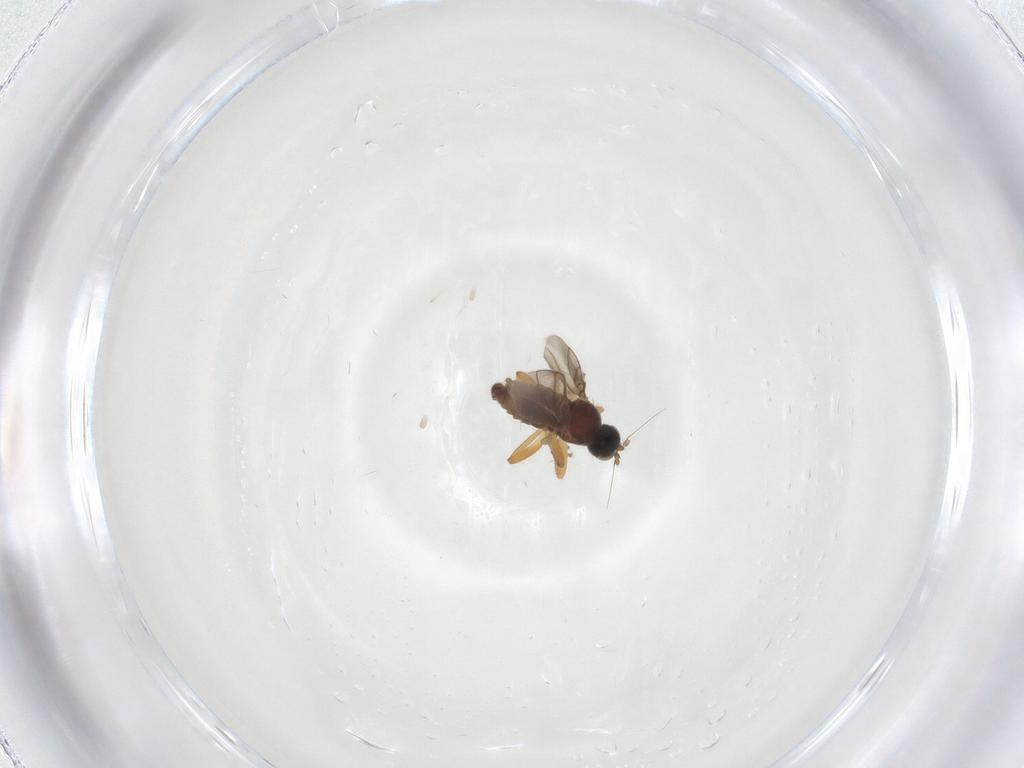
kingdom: Animalia
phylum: Arthropoda
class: Insecta
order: Diptera
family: Hybotidae
